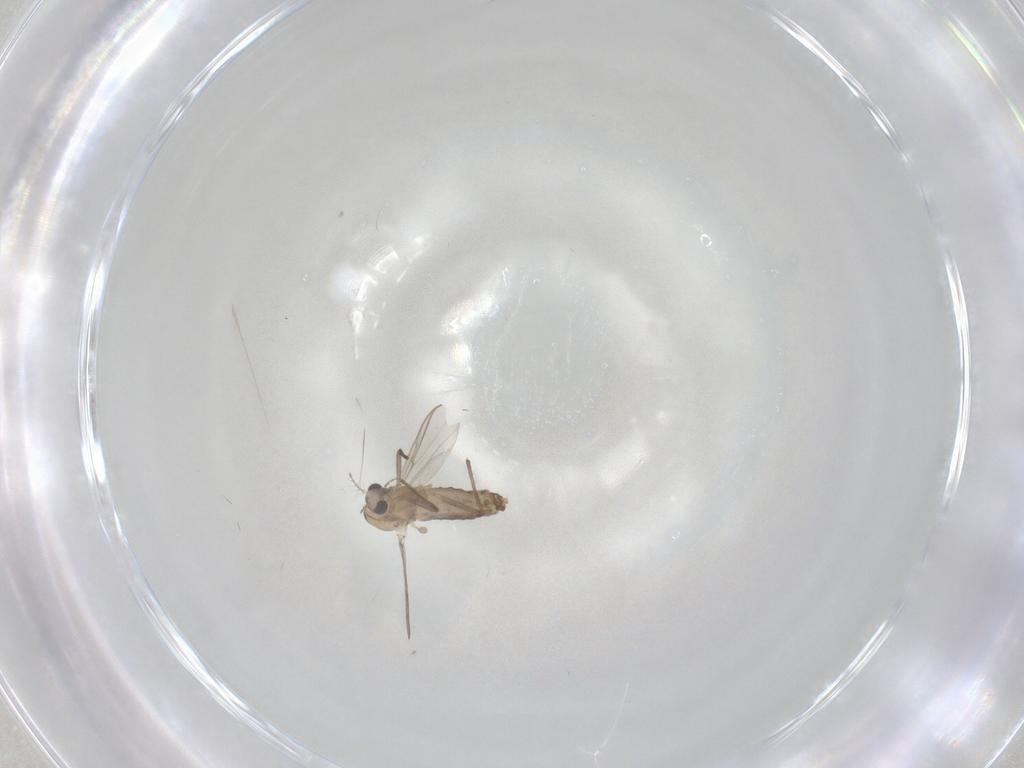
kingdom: Animalia
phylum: Arthropoda
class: Insecta
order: Diptera
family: Chironomidae
